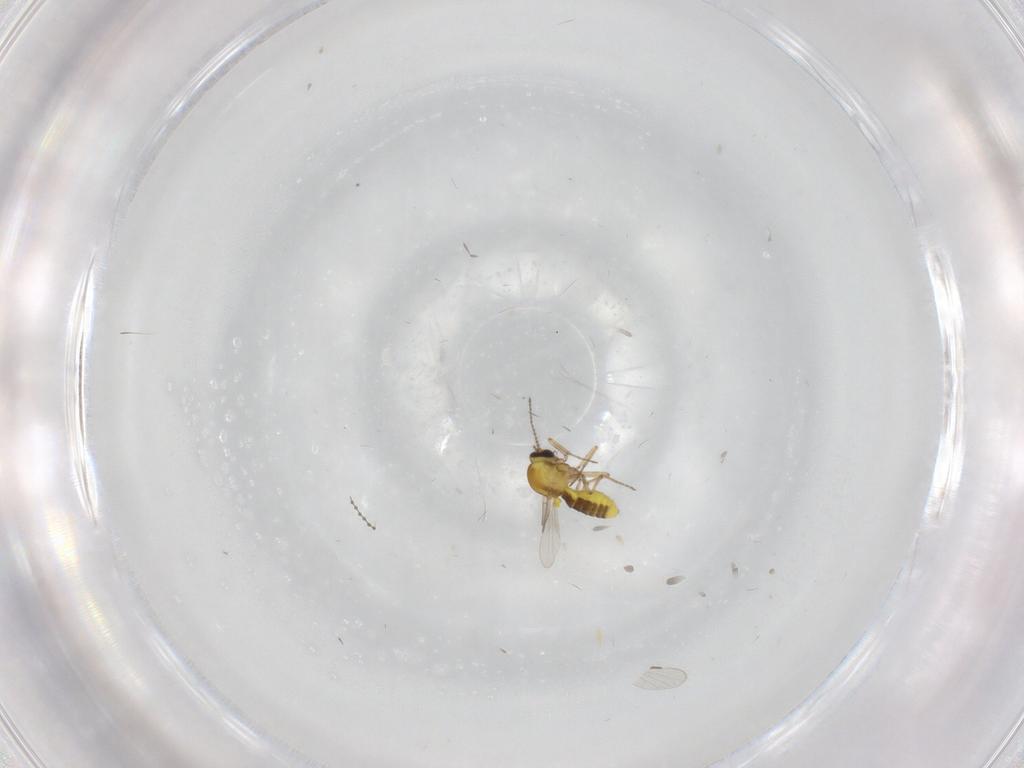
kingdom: Animalia
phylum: Arthropoda
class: Insecta
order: Diptera
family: Ceratopogonidae
